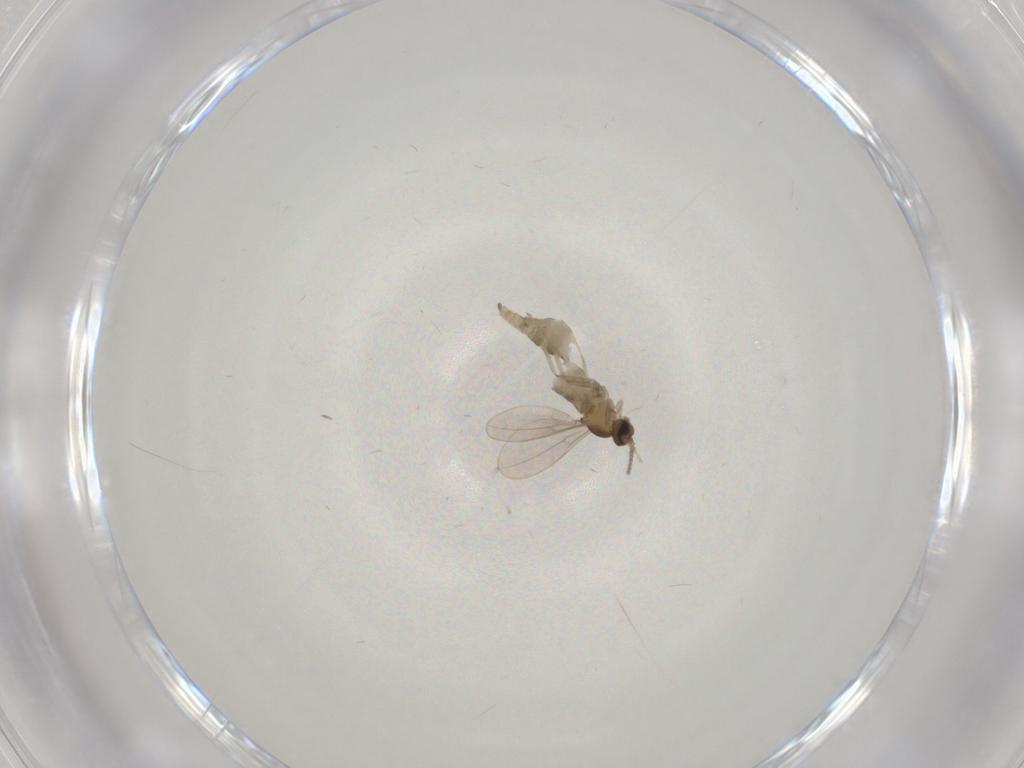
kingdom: Animalia
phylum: Arthropoda
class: Insecta
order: Diptera
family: Cecidomyiidae
